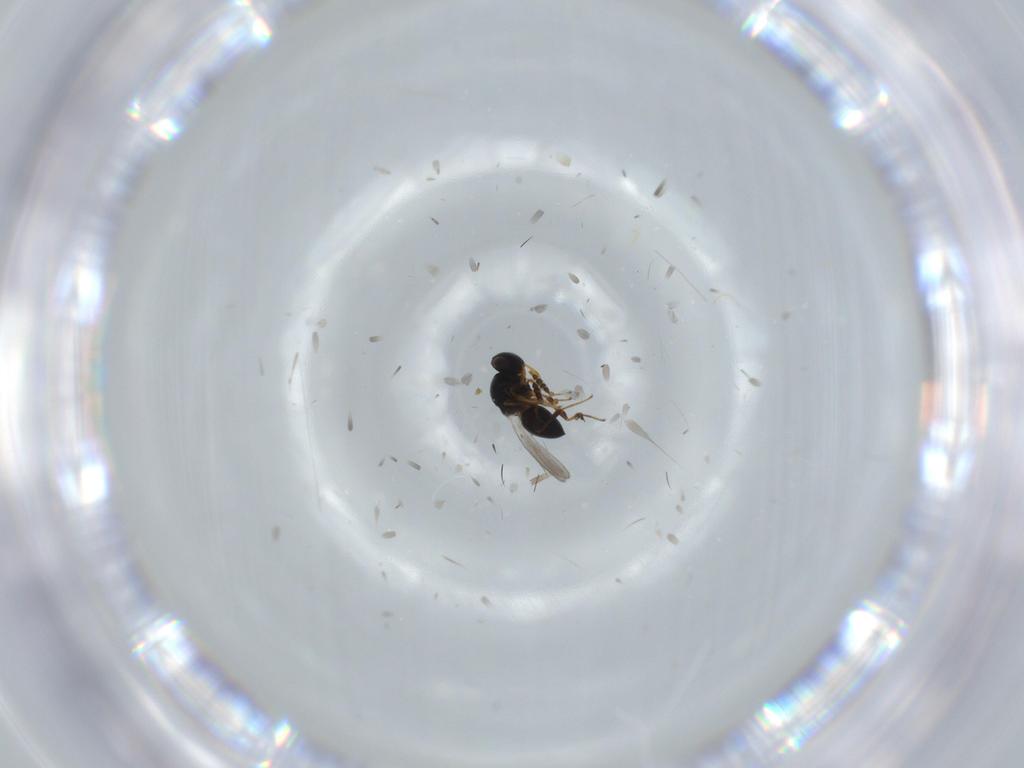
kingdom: Animalia
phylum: Arthropoda
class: Insecta
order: Hymenoptera
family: Platygastridae
